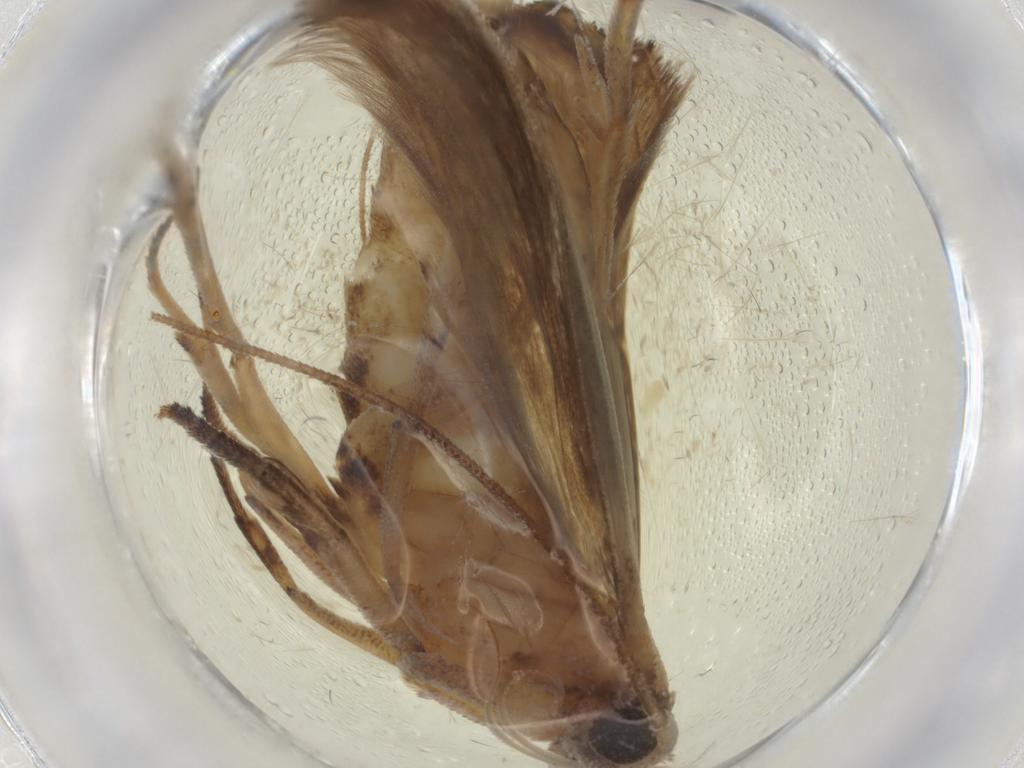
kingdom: Animalia
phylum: Arthropoda
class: Insecta
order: Lepidoptera
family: Yponomeutidae
